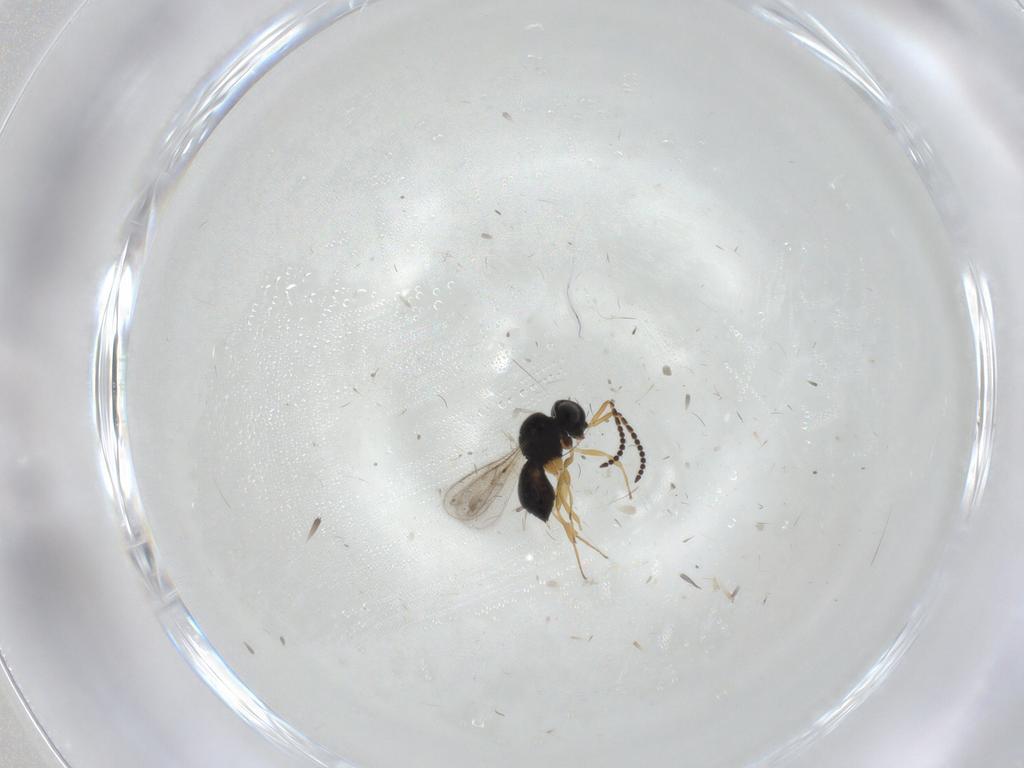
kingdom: Animalia
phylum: Arthropoda
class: Insecta
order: Hymenoptera
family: Scelionidae
